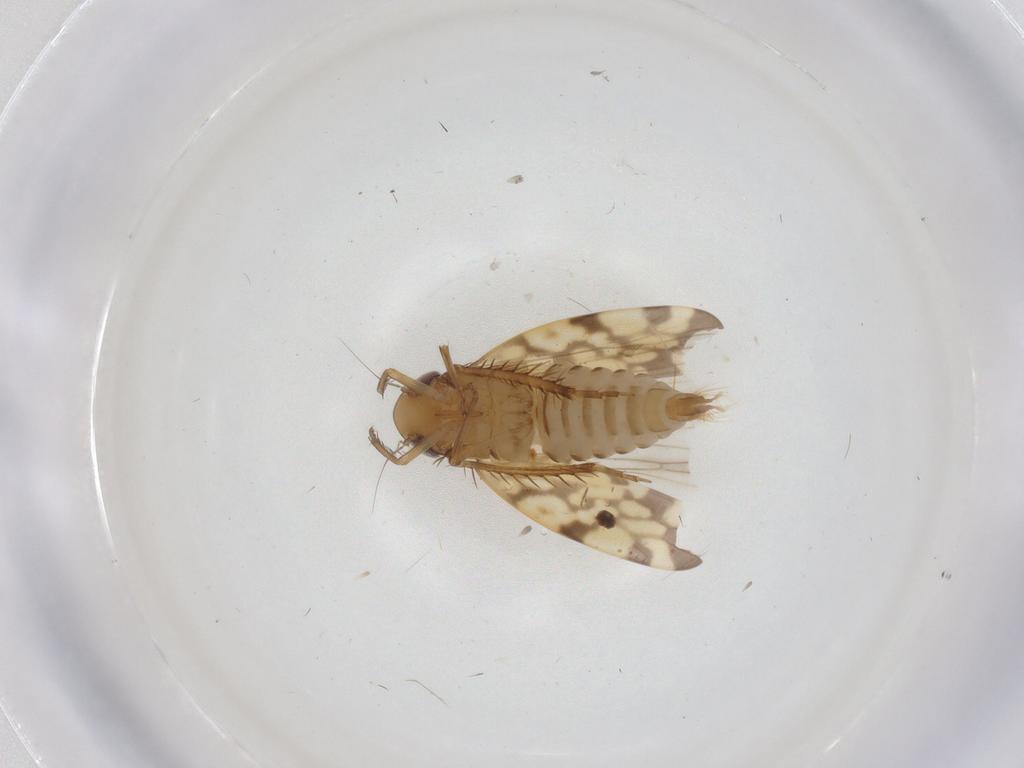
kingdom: Animalia
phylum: Arthropoda
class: Insecta
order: Hemiptera
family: Cicadellidae
